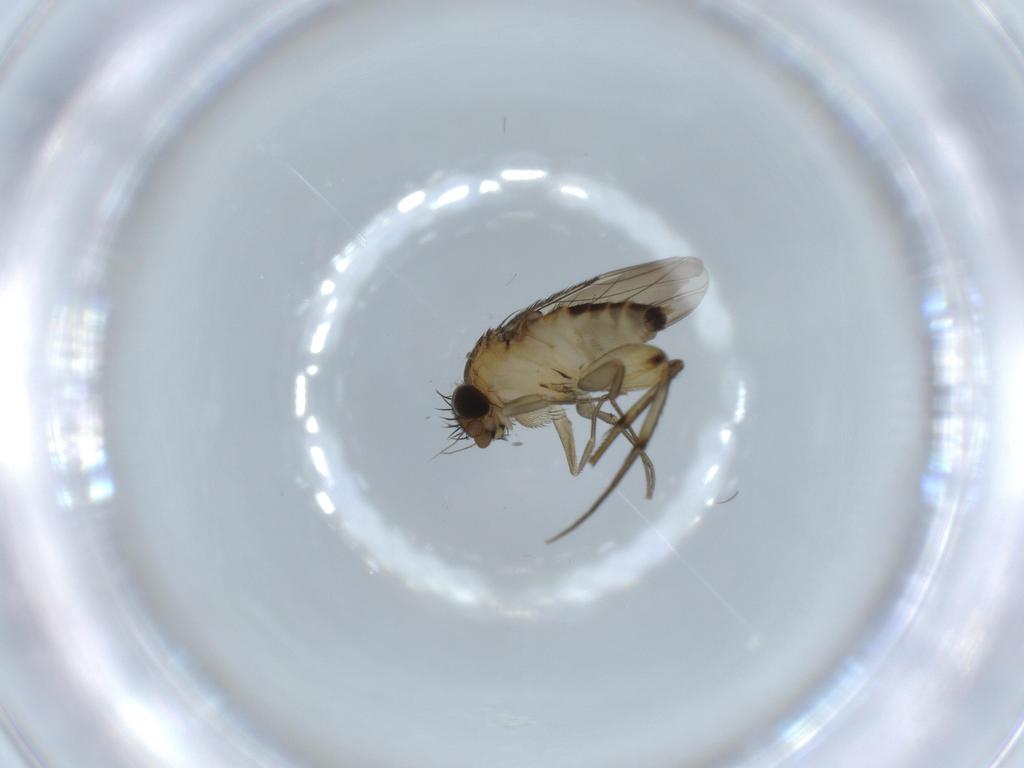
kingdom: Animalia
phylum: Arthropoda
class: Insecta
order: Diptera
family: Phoridae
